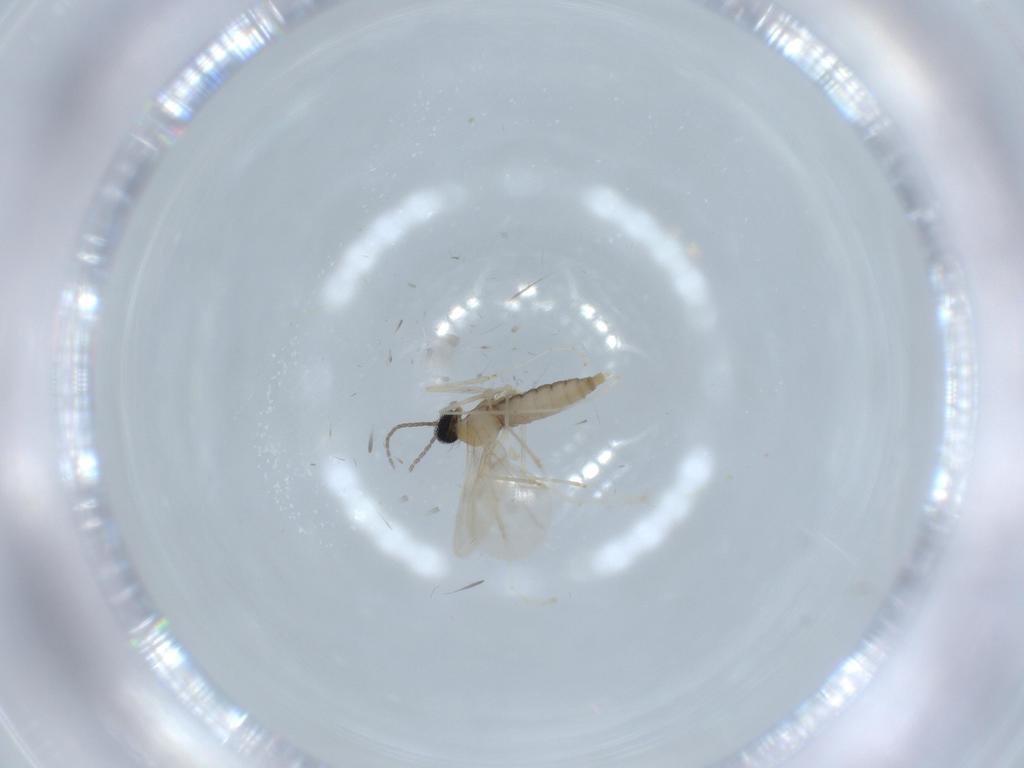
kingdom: Animalia
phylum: Arthropoda
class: Insecta
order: Diptera
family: Cecidomyiidae
